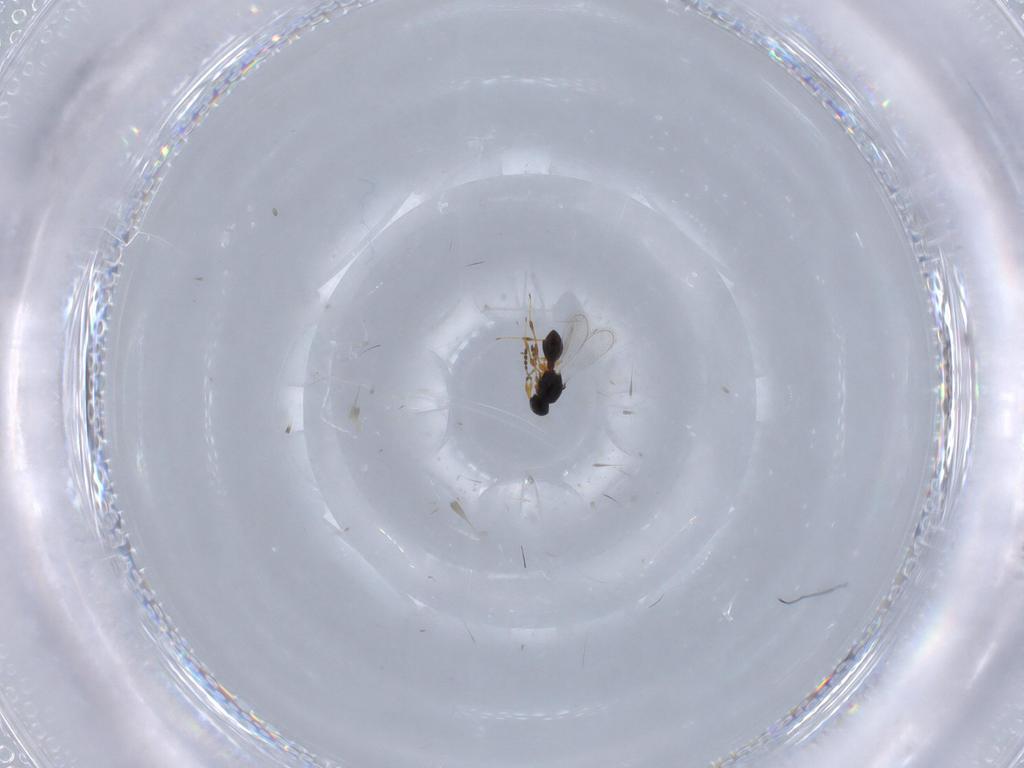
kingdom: Animalia
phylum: Arthropoda
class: Insecta
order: Hymenoptera
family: Platygastridae
